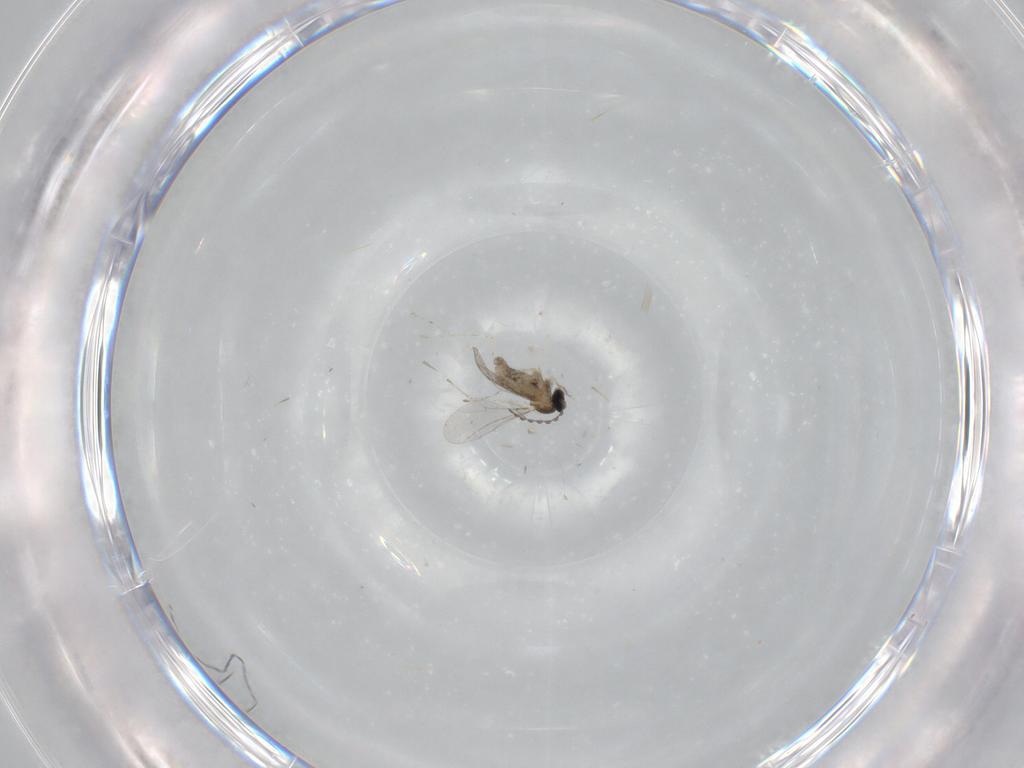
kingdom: Animalia
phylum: Arthropoda
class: Insecta
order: Diptera
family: Cecidomyiidae
